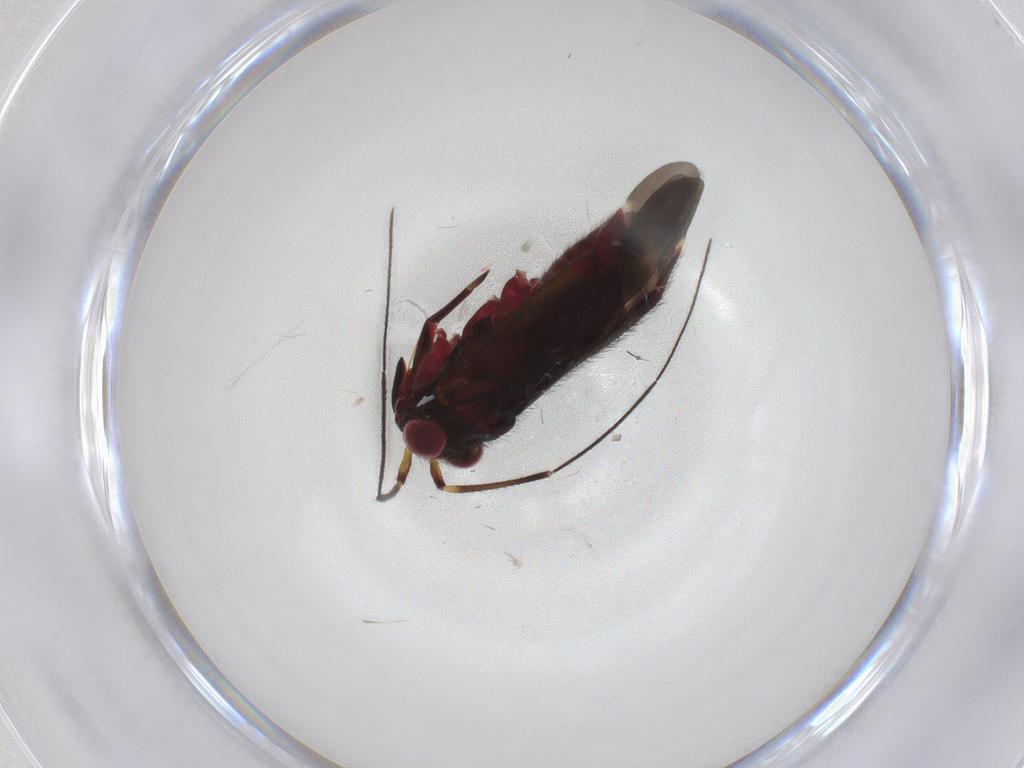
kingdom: Animalia
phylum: Arthropoda
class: Insecta
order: Hemiptera
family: Miridae
